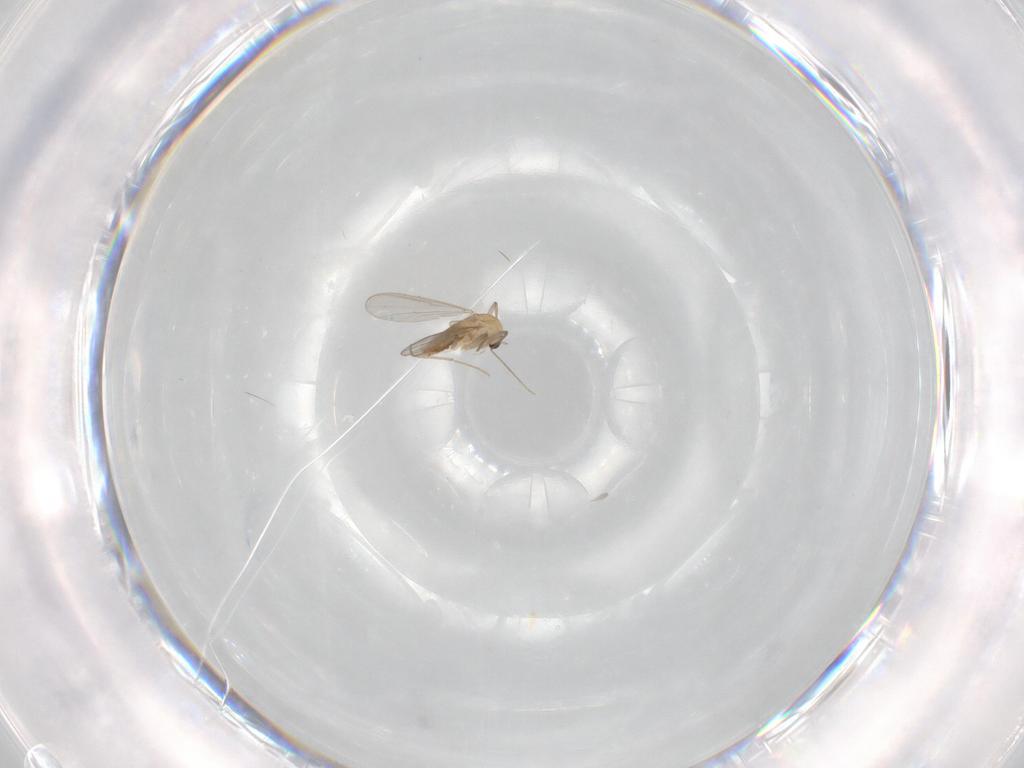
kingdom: Animalia
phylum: Arthropoda
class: Insecta
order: Diptera
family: Chironomidae
